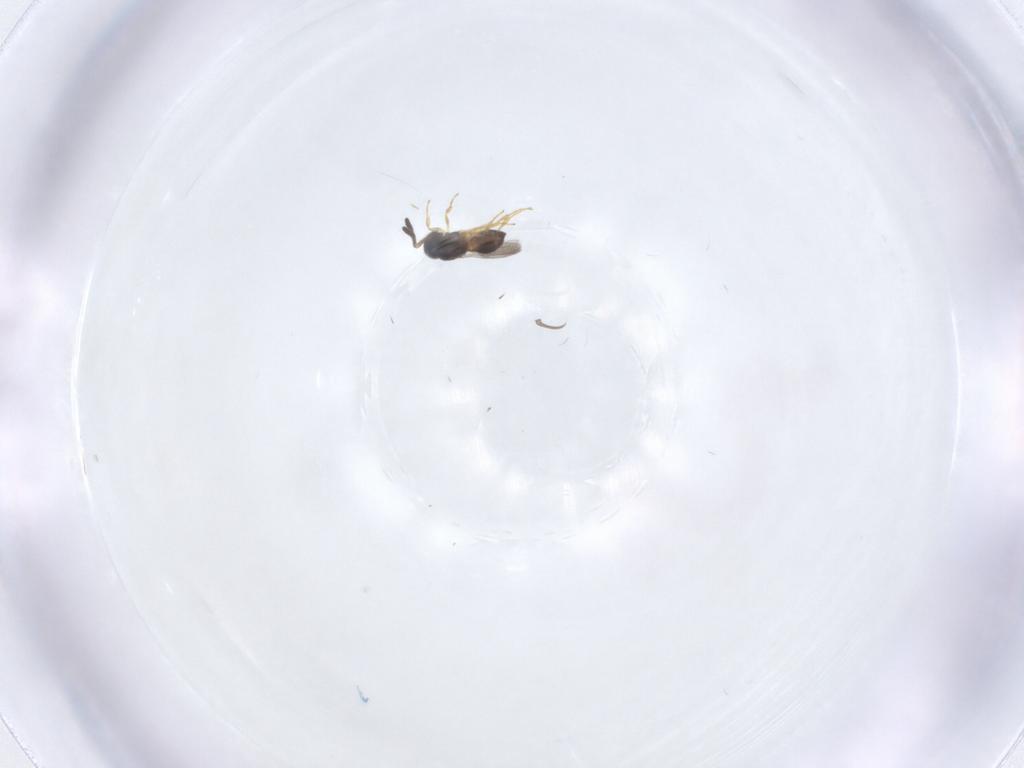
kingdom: Animalia
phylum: Arthropoda
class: Insecta
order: Hymenoptera
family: Scelionidae
